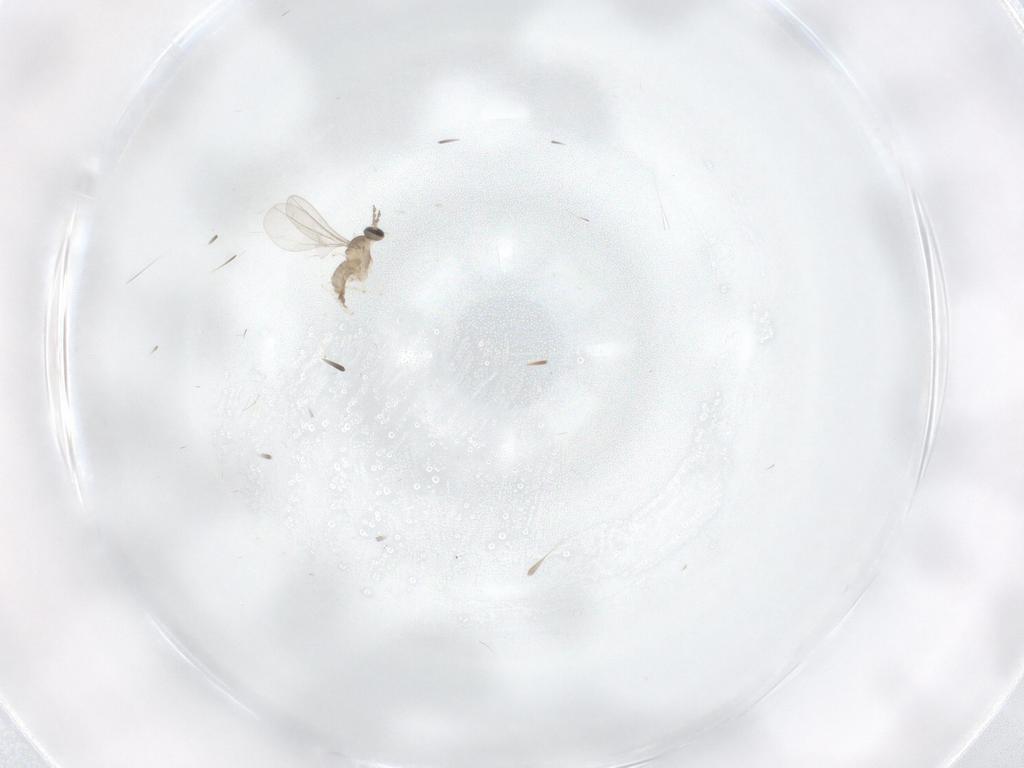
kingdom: Animalia
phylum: Arthropoda
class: Insecta
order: Diptera
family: Cecidomyiidae
